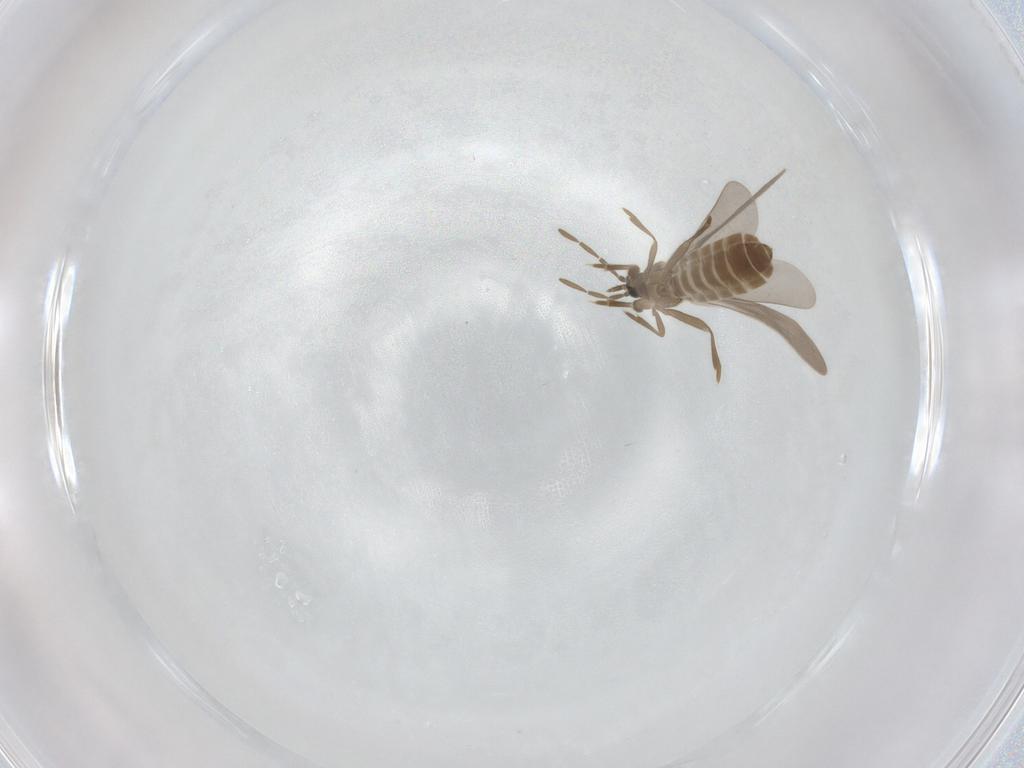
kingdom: Animalia
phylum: Arthropoda
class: Insecta
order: Hemiptera
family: Enicocephalidae
